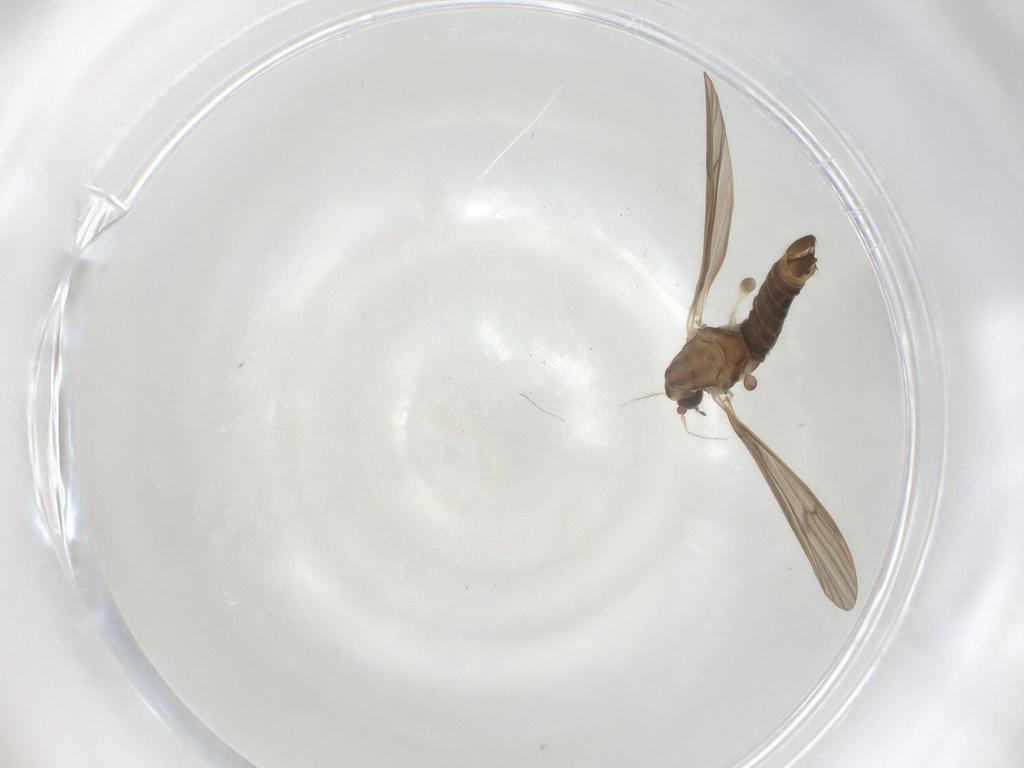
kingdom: Animalia
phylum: Arthropoda
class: Insecta
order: Diptera
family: Limoniidae
